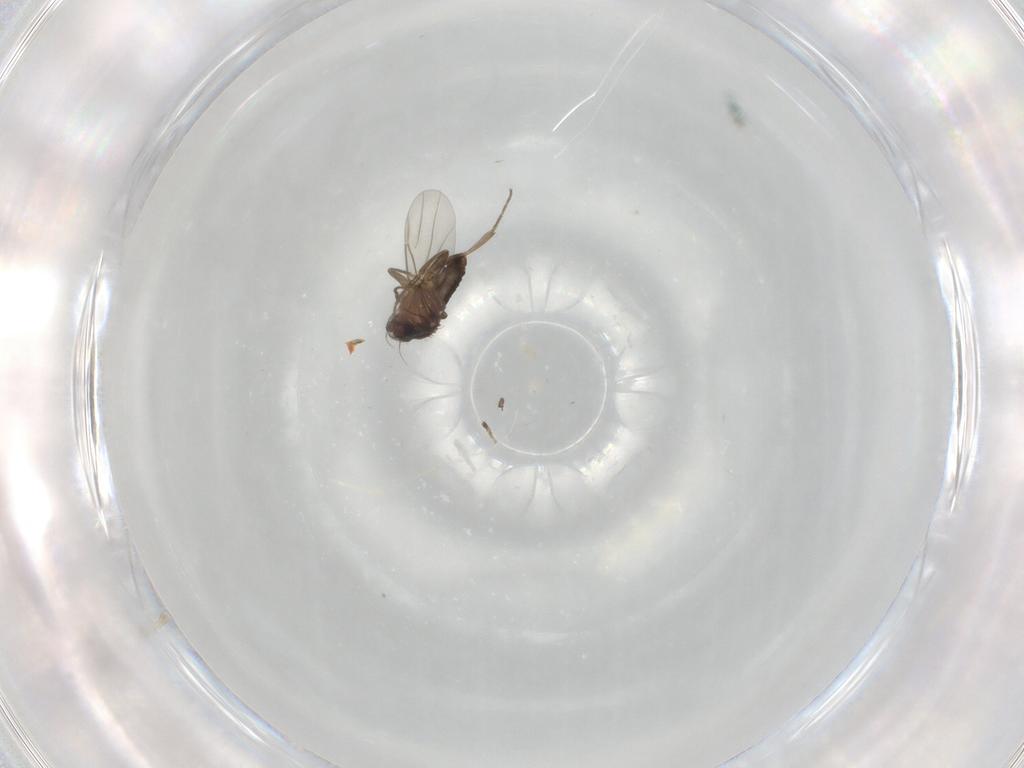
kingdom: Animalia
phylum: Arthropoda
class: Insecta
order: Diptera
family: Phoridae
